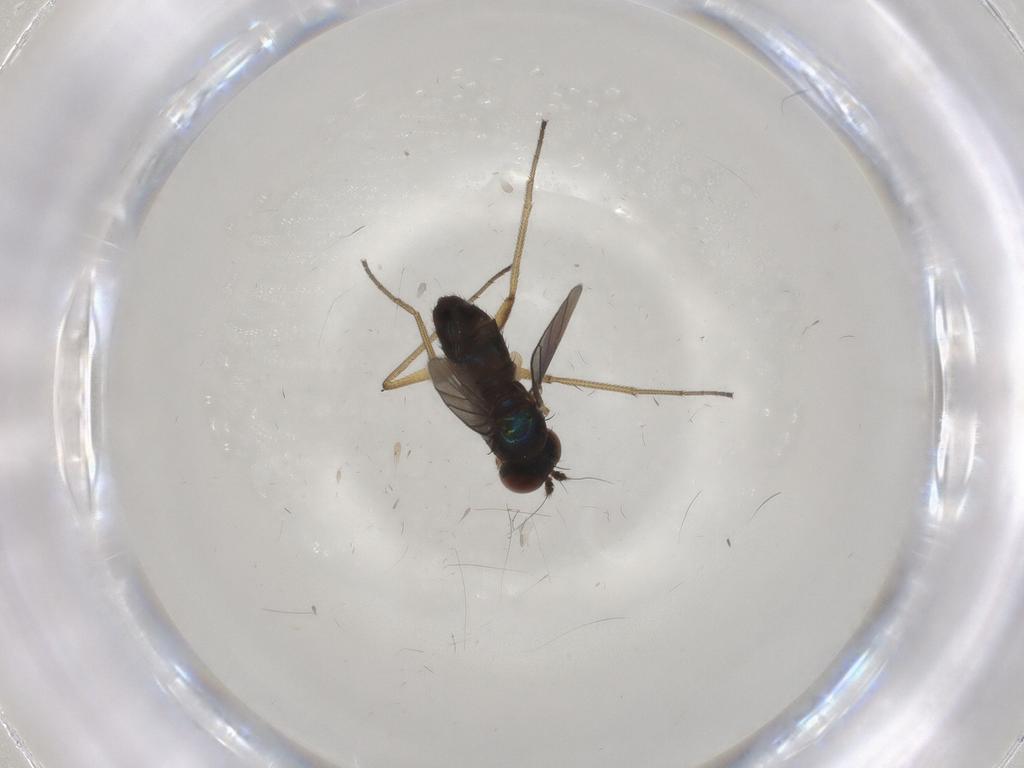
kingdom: Animalia
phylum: Arthropoda
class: Insecta
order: Diptera
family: Dolichopodidae
